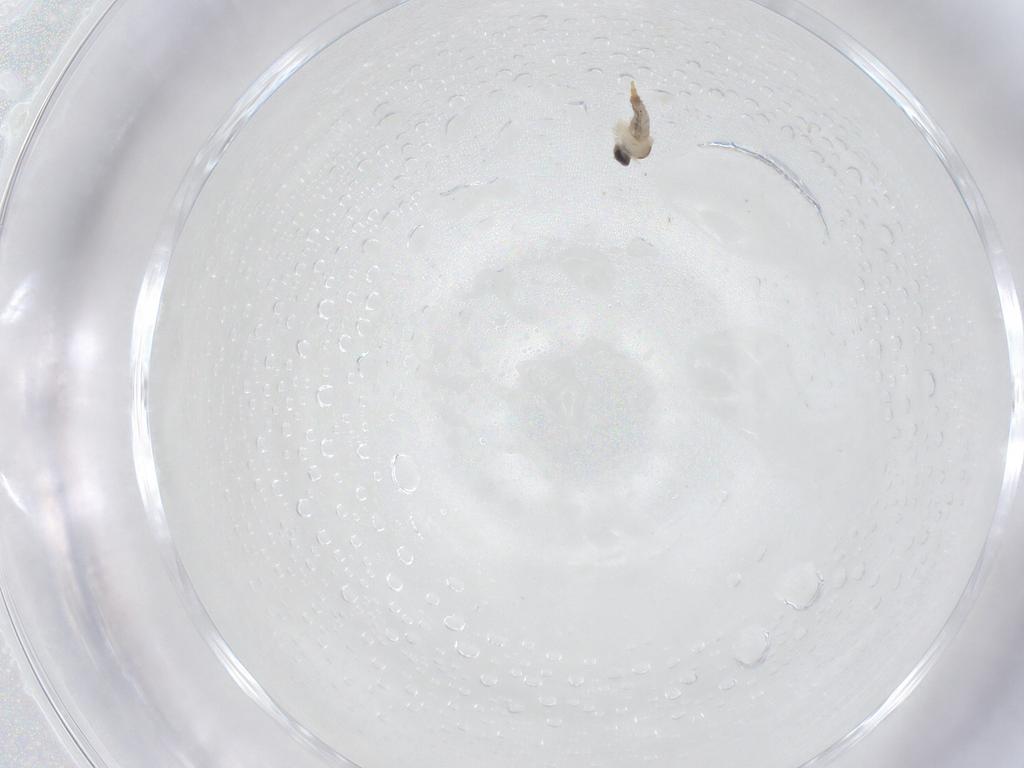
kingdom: Animalia
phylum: Arthropoda
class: Insecta
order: Diptera
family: Cecidomyiidae
